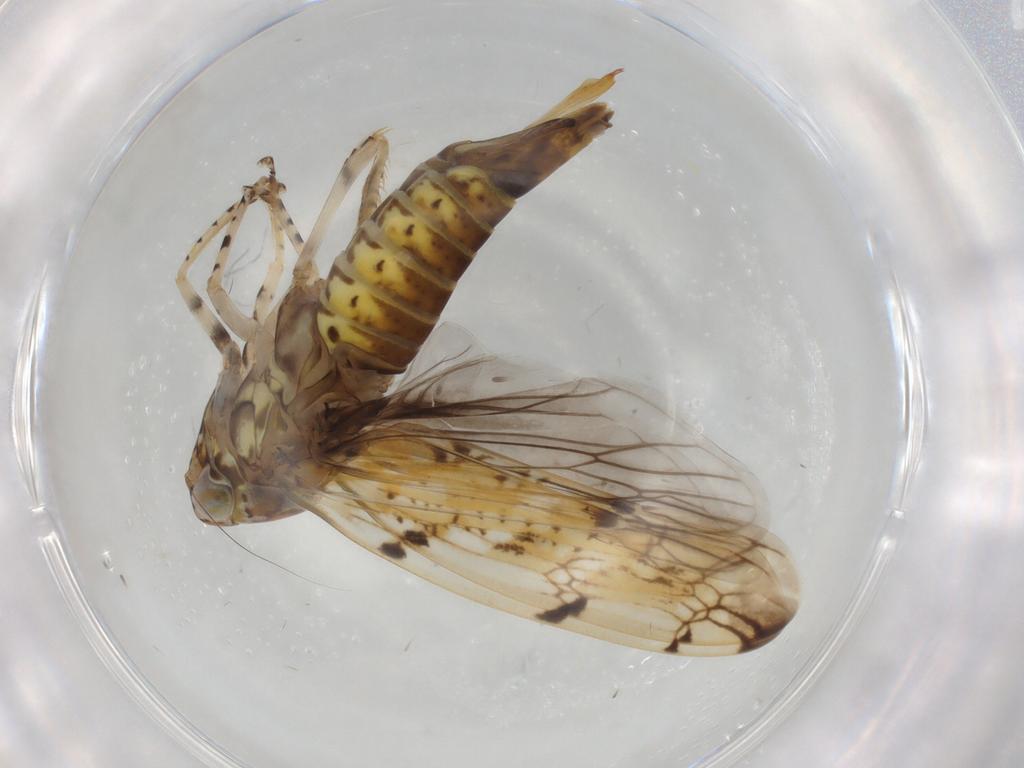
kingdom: Animalia
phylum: Arthropoda
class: Insecta
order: Hemiptera
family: Cicadellidae
